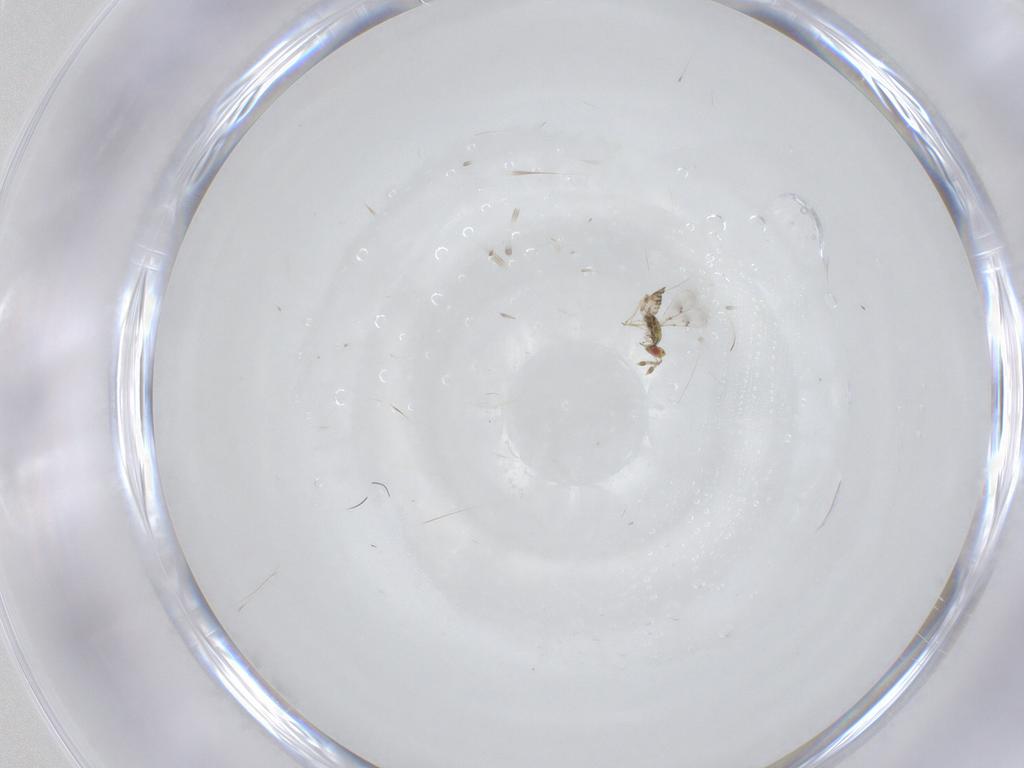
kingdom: Animalia
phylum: Arthropoda
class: Insecta
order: Hymenoptera
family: Eulophidae
